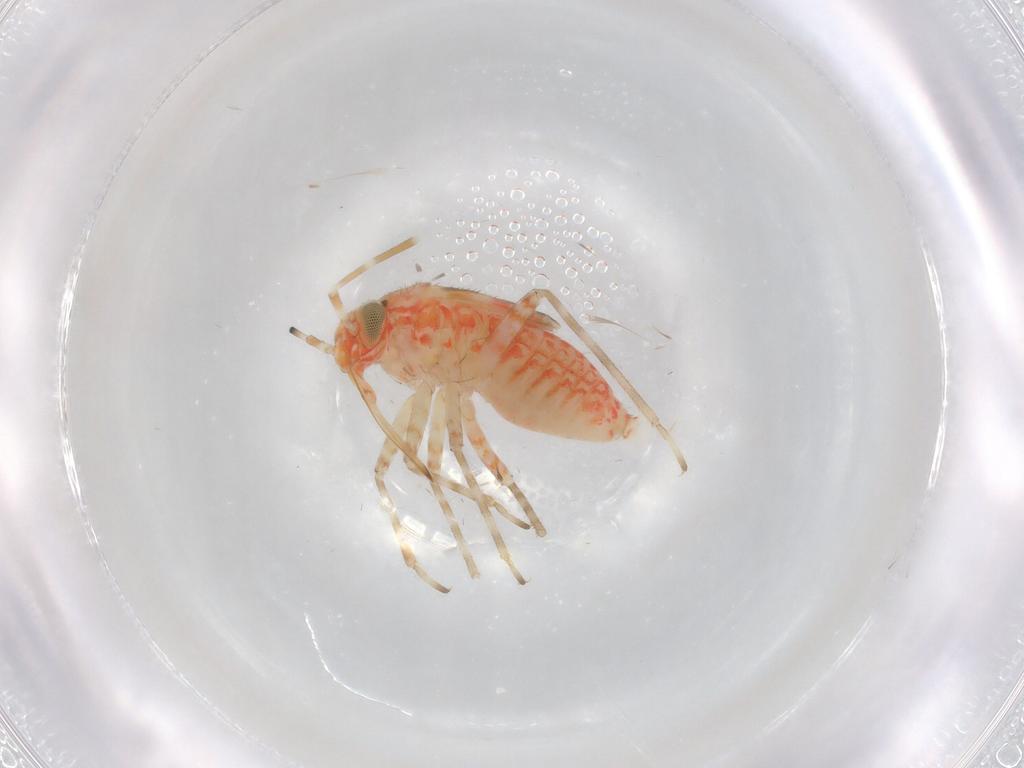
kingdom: Animalia
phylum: Arthropoda
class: Insecta
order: Hemiptera
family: Miridae
